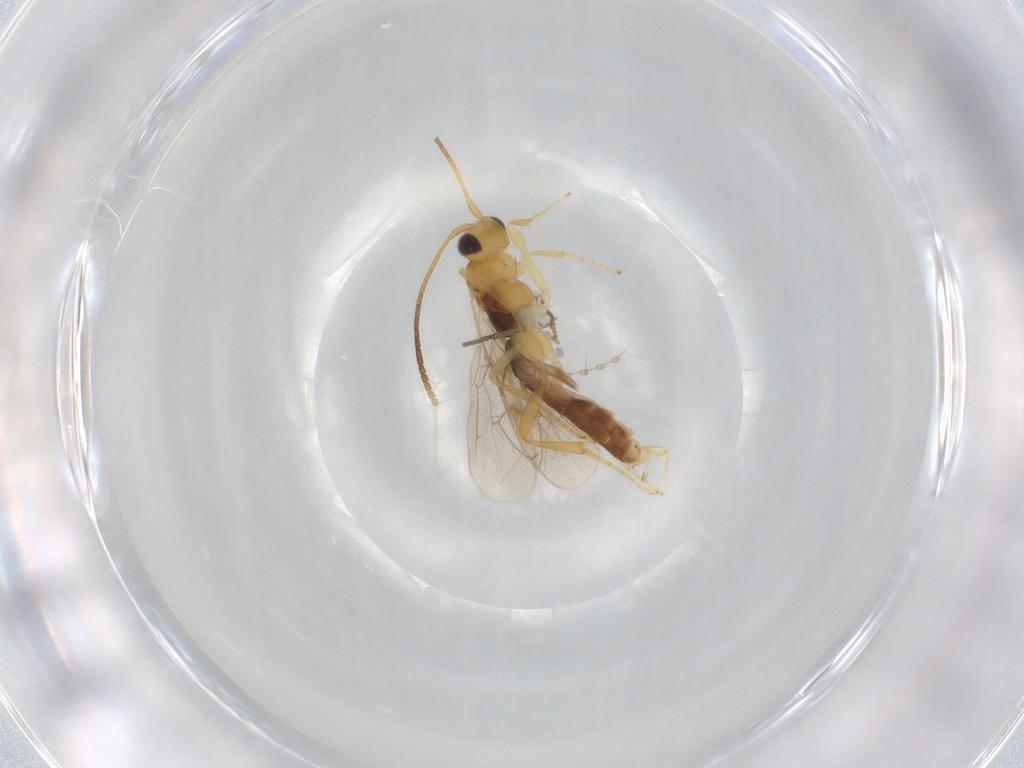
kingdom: Animalia
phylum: Arthropoda
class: Insecta
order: Hymenoptera
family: Ichneumonidae
